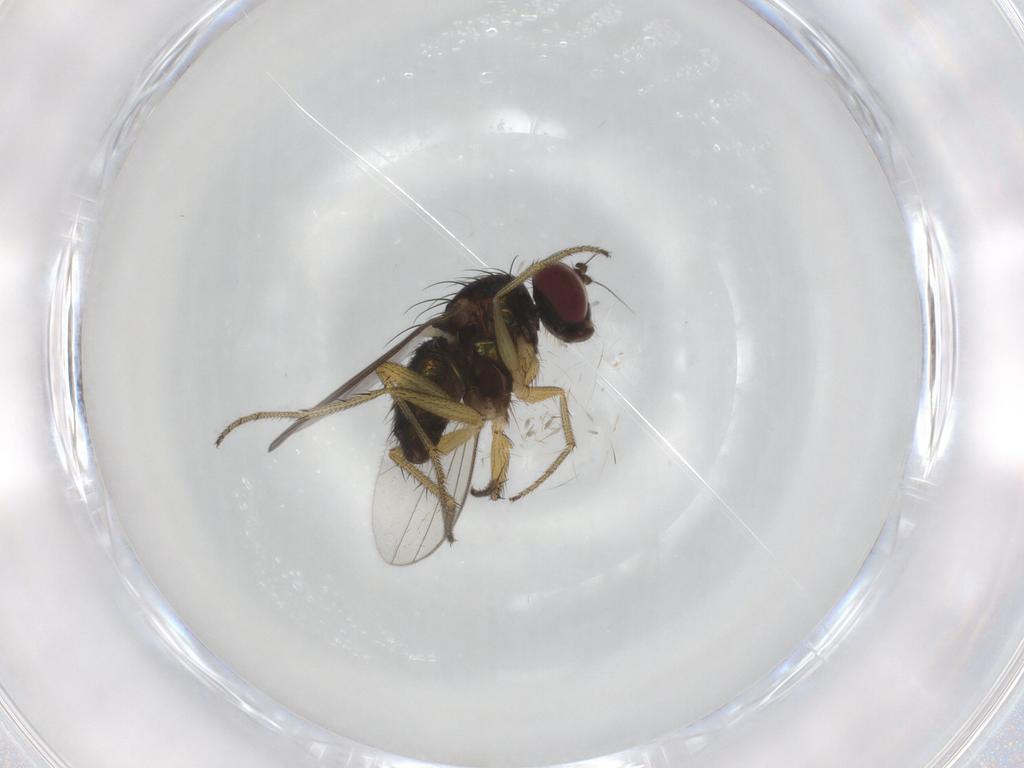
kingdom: Animalia
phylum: Arthropoda
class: Insecta
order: Diptera
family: Dolichopodidae
